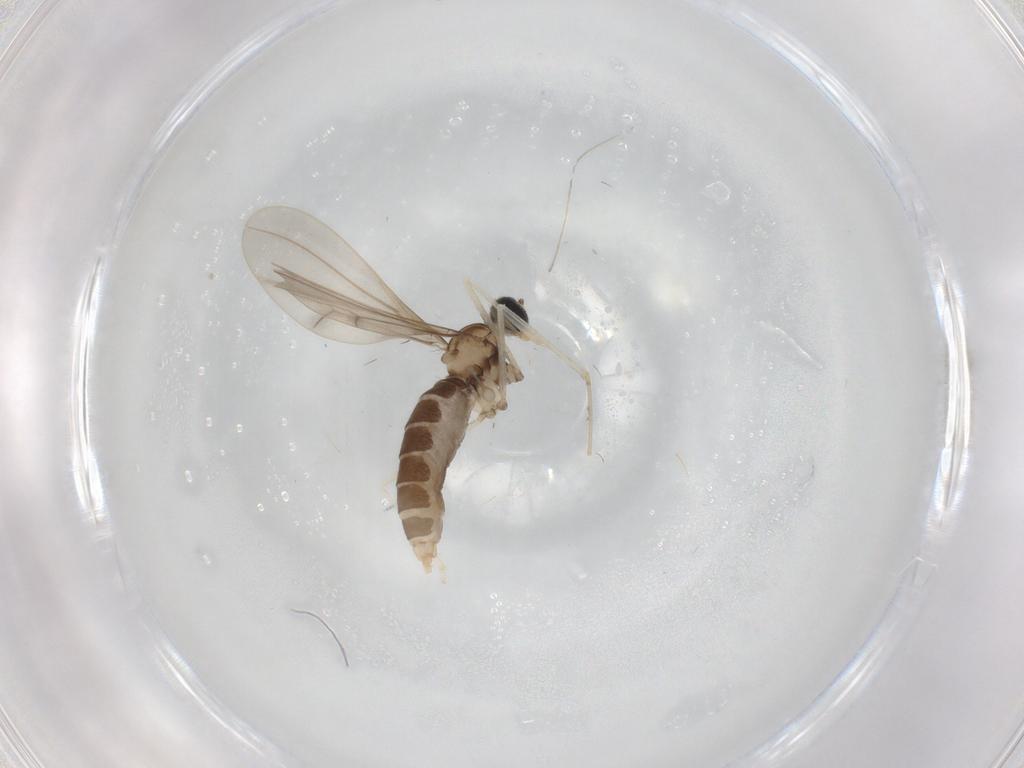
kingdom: Animalia
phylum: Arthropoda
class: Insecta
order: Diptera
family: Cecidomyiidae
